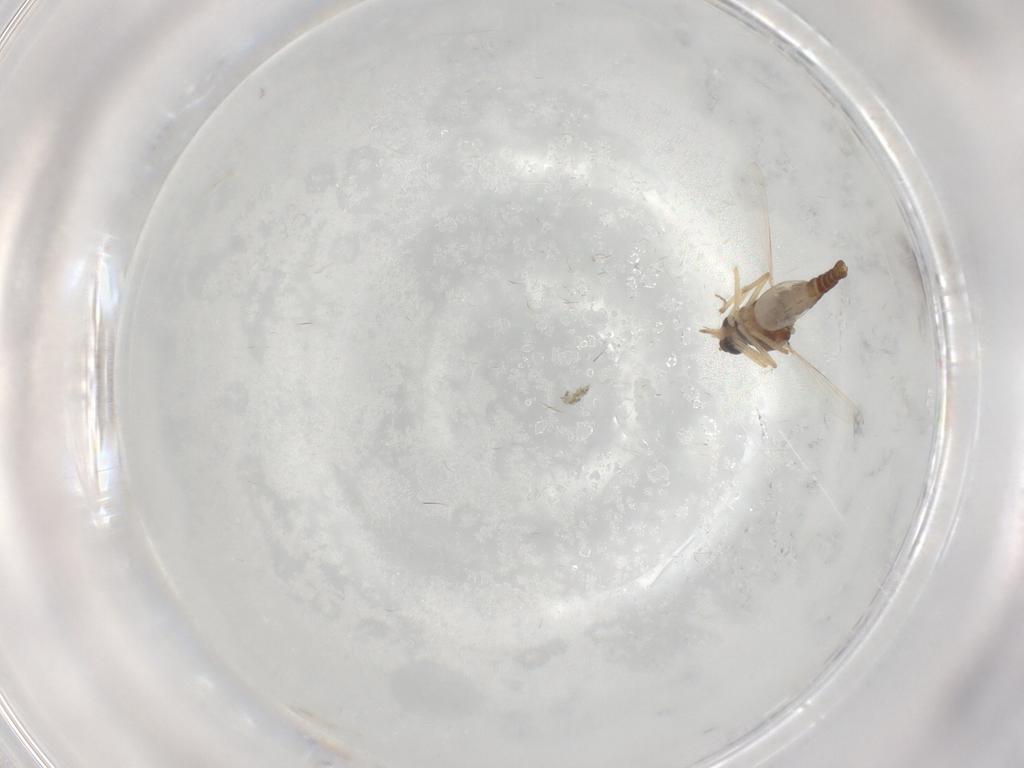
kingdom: Animalia
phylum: Arthropoda
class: Insecta
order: Diptera
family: Ceratopogonidae
